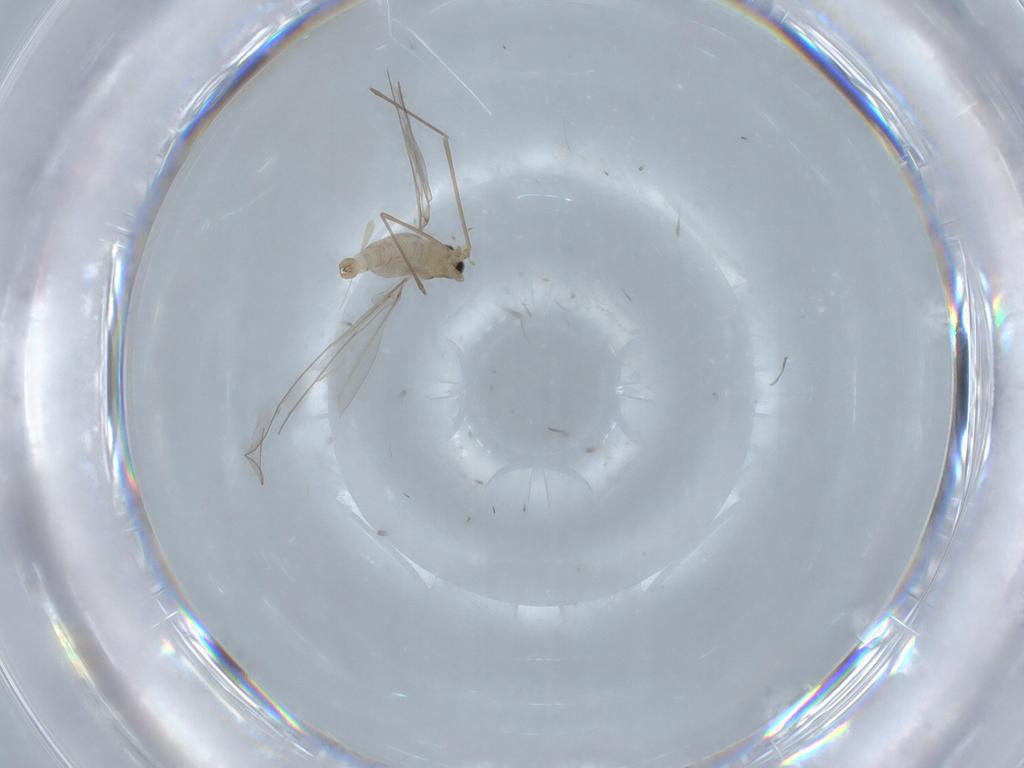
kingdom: Animalia
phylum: Arthropoda
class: Insecta
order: Diptera
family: Cecidomyiidae
